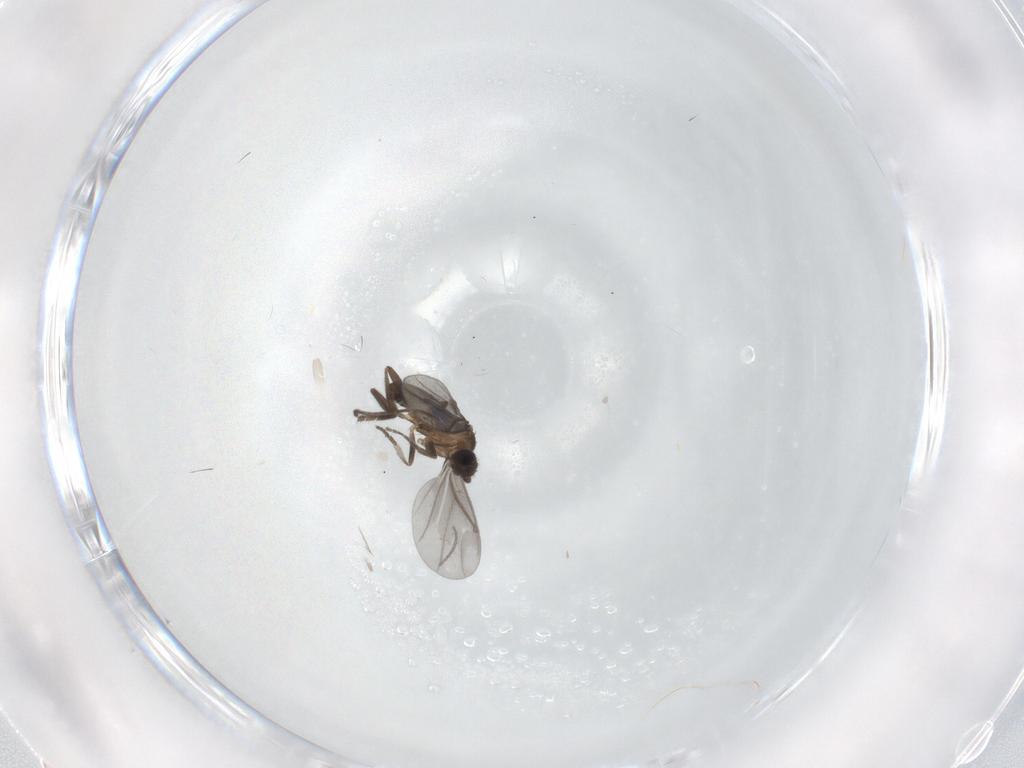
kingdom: Animalia
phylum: Arthropoda
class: Insecta
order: Diptera
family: Phoridae
